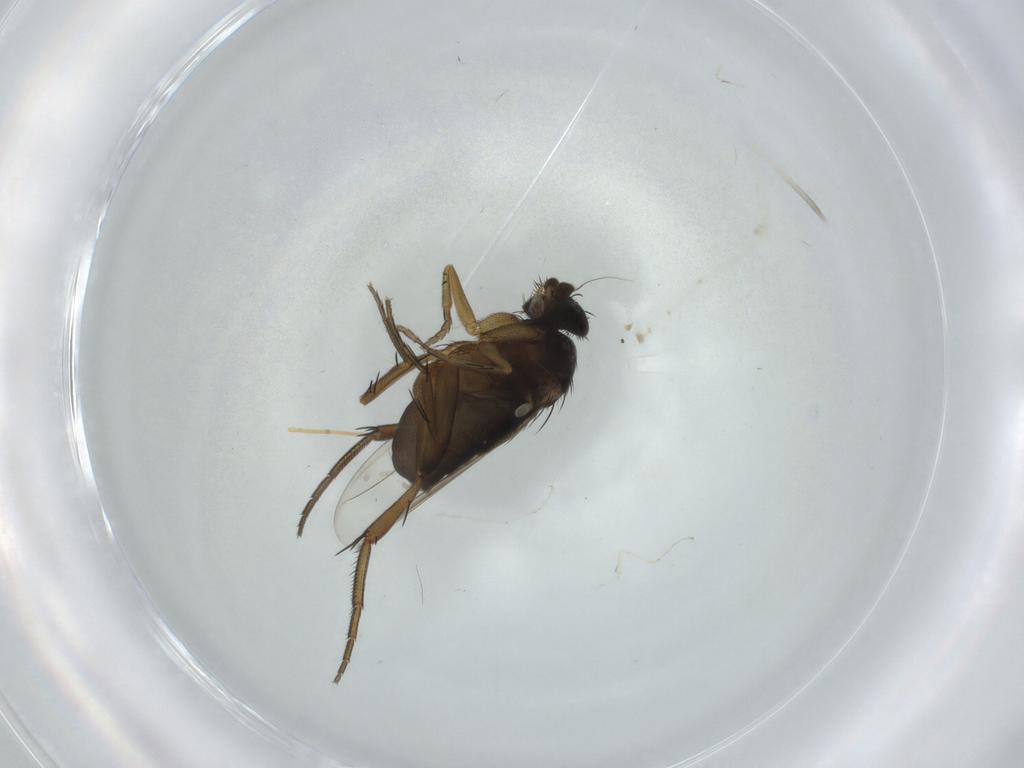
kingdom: Animalia
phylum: Arthropoda
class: Insecta
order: Diptera
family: Phoridae
